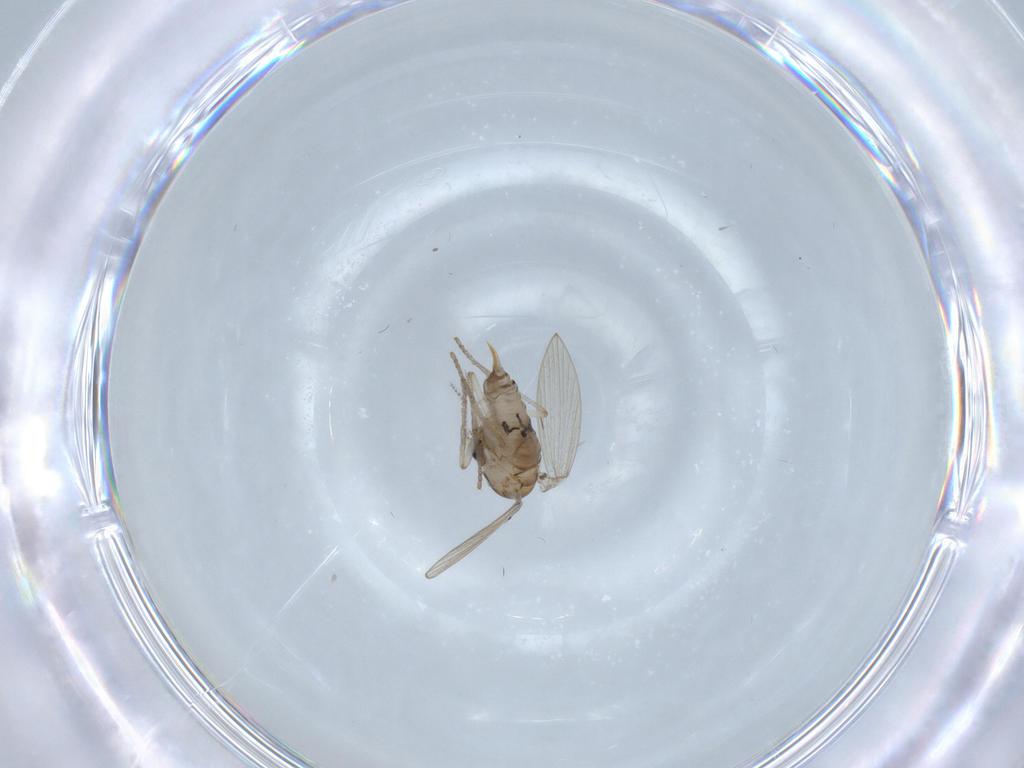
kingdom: Animalia
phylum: Arthropoda
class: Insecta
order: Diptera
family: Psychodidae
